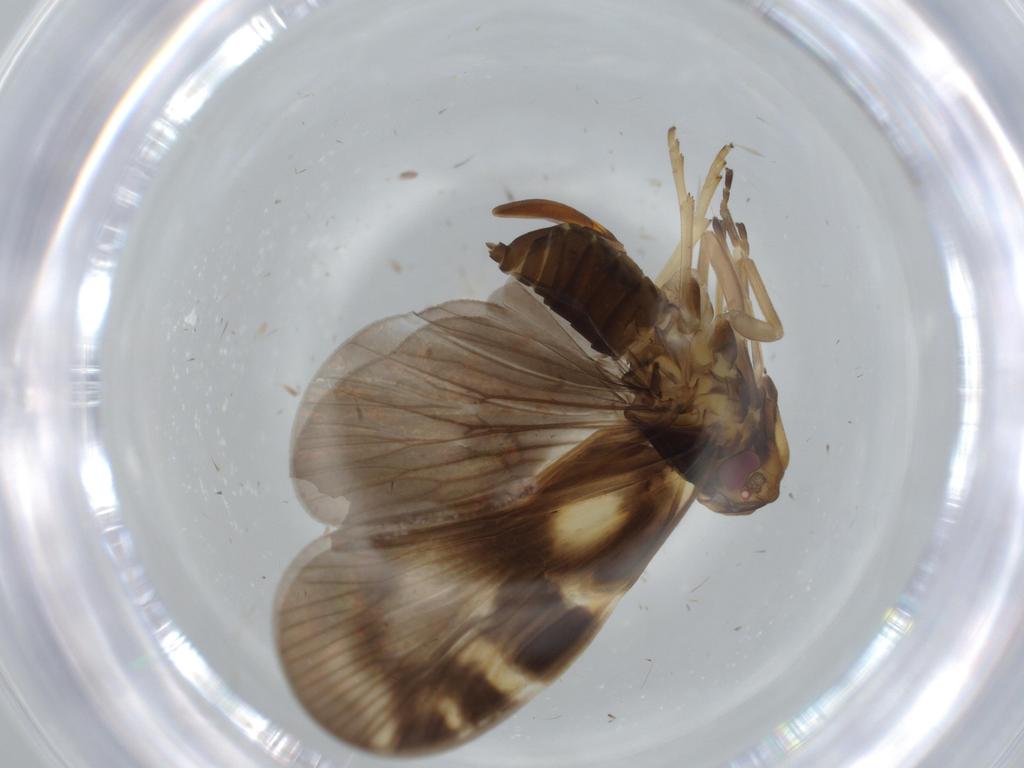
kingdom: Animalia
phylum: Arthropoda
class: Insecta
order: Hemiptera
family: Cixiidae
